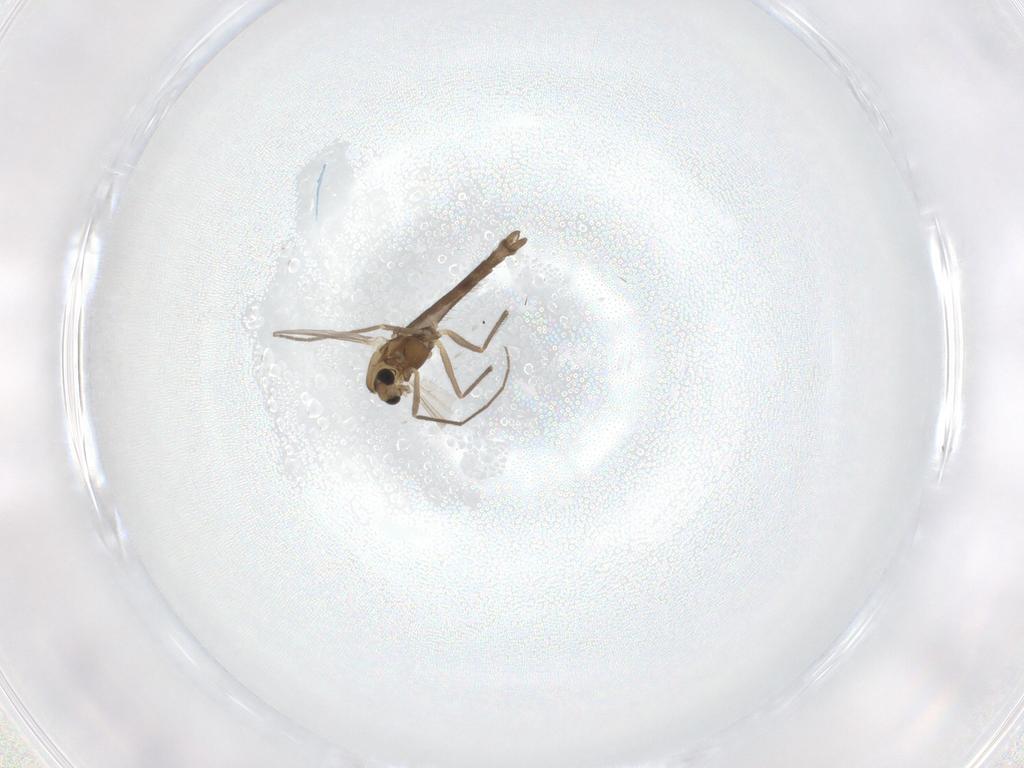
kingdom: Animalia
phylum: Arthropoda
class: Insecta
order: Diptera
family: Chironomidae
